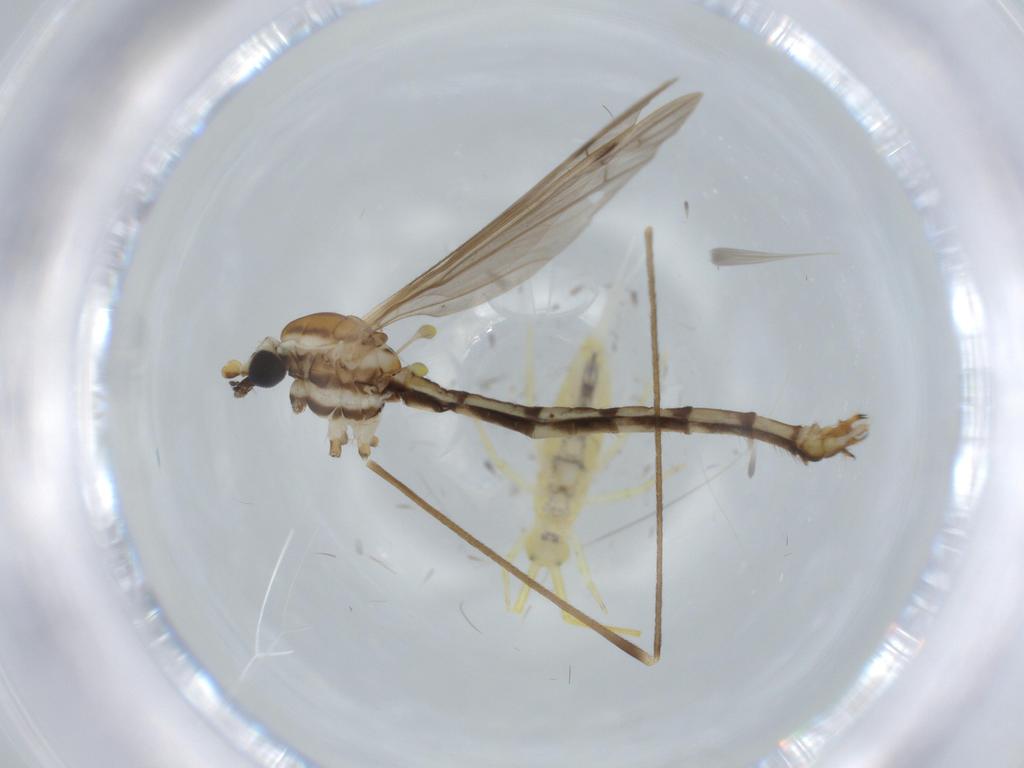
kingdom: Animalia
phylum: Arthropoda
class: Insecta
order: Diptera
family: Psychodidae
